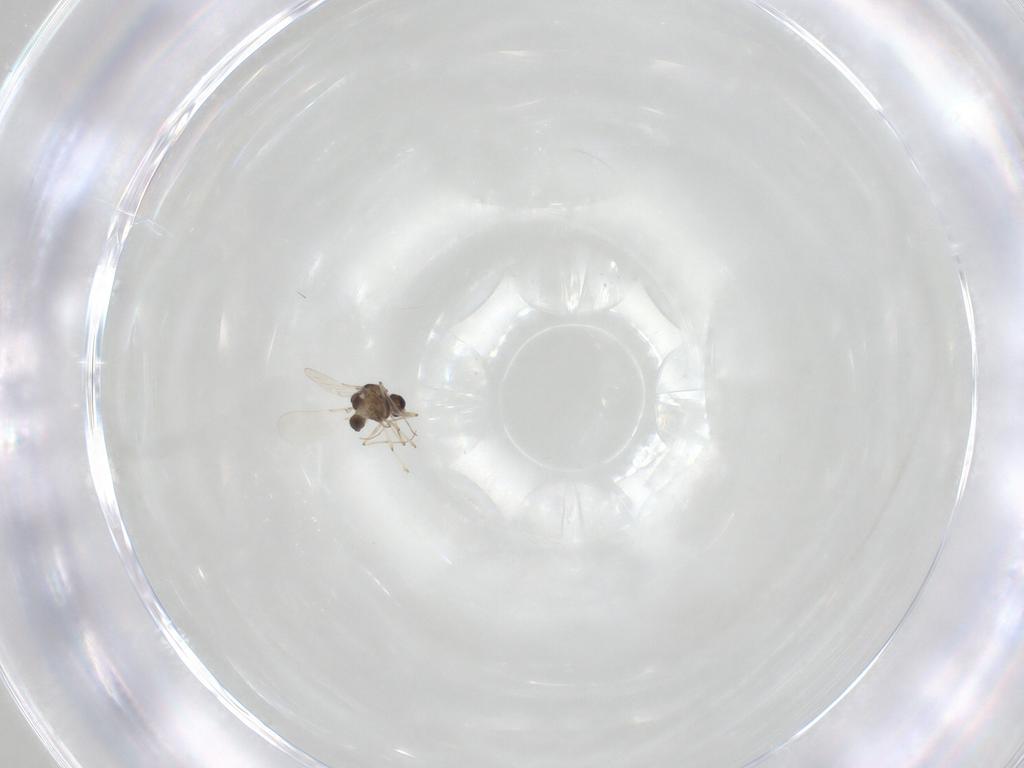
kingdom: Animalia
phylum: Arthropoda
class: Insecta
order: Diptera
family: Chironomidae
